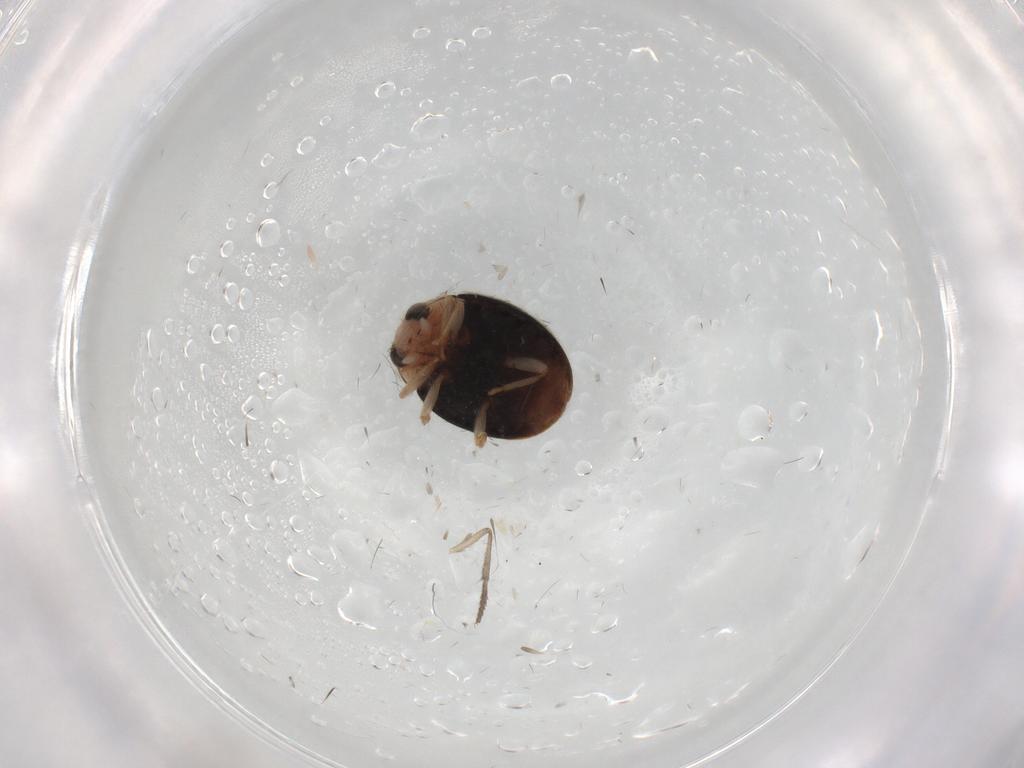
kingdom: Animalia
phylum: Arthropoda
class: Insecta
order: Coleoptera
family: Coccinellidae
